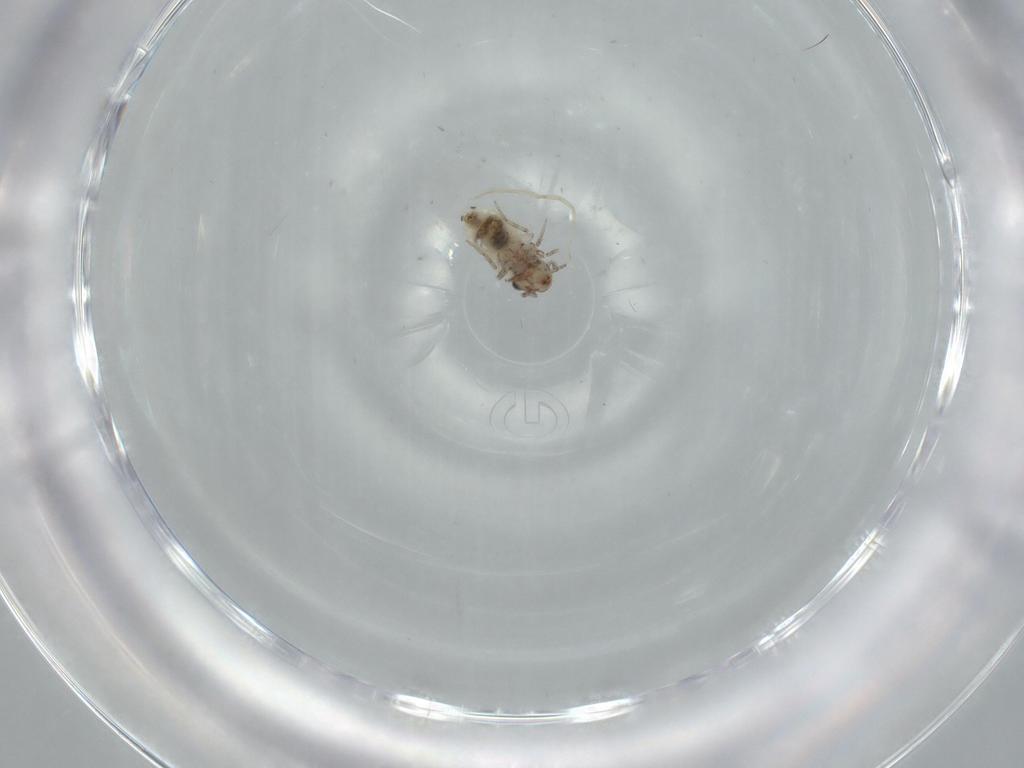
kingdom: Animalia
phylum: Arthropoda
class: Insecta
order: Psocodea
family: Lepidopsocidae
